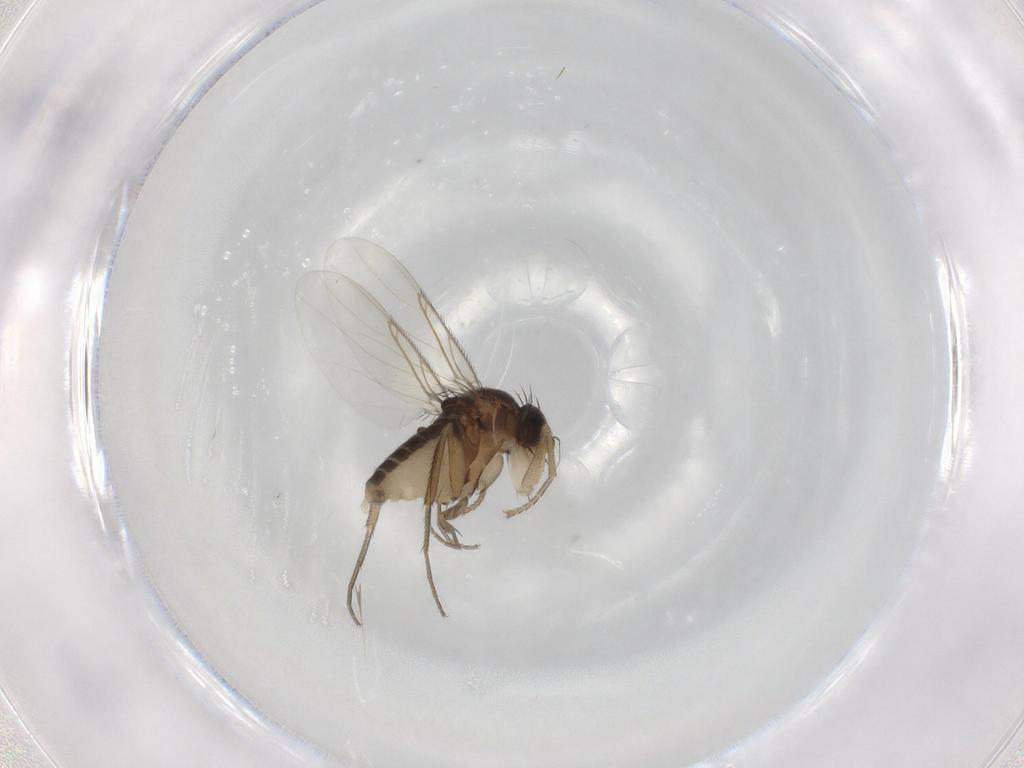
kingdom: Animalia
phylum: Arthropoda
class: Insecta
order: Diptera
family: Phoridae
